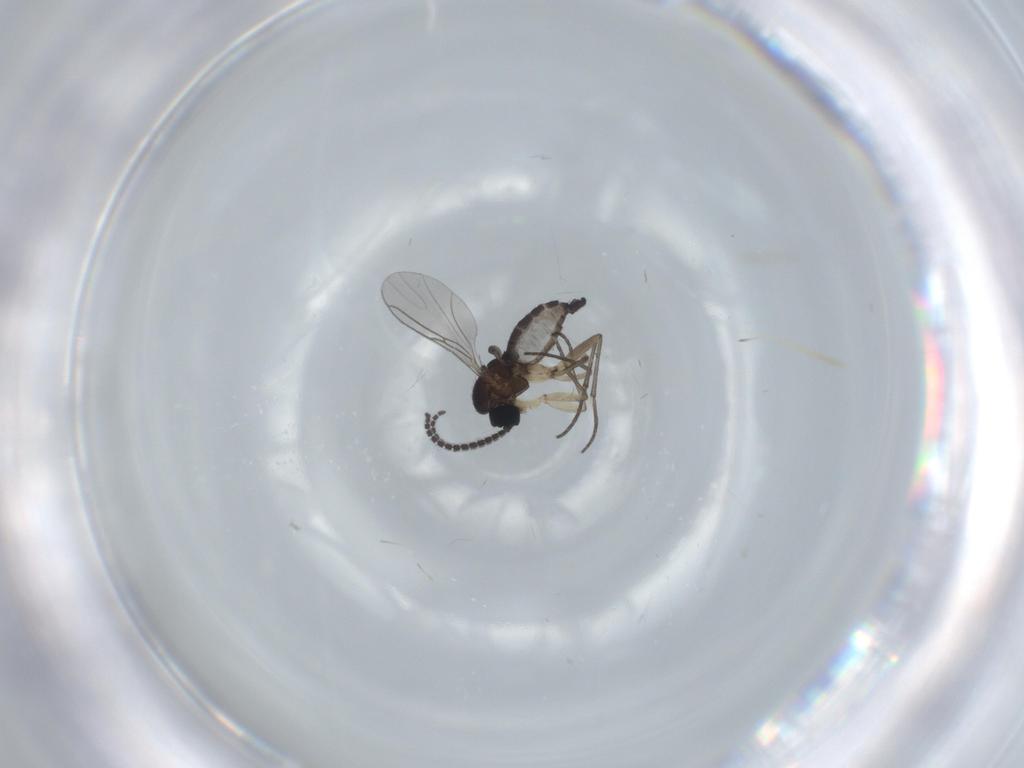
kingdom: Animalia
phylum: Arthropoda
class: Insecta
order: Diptera
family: Sciaridae
